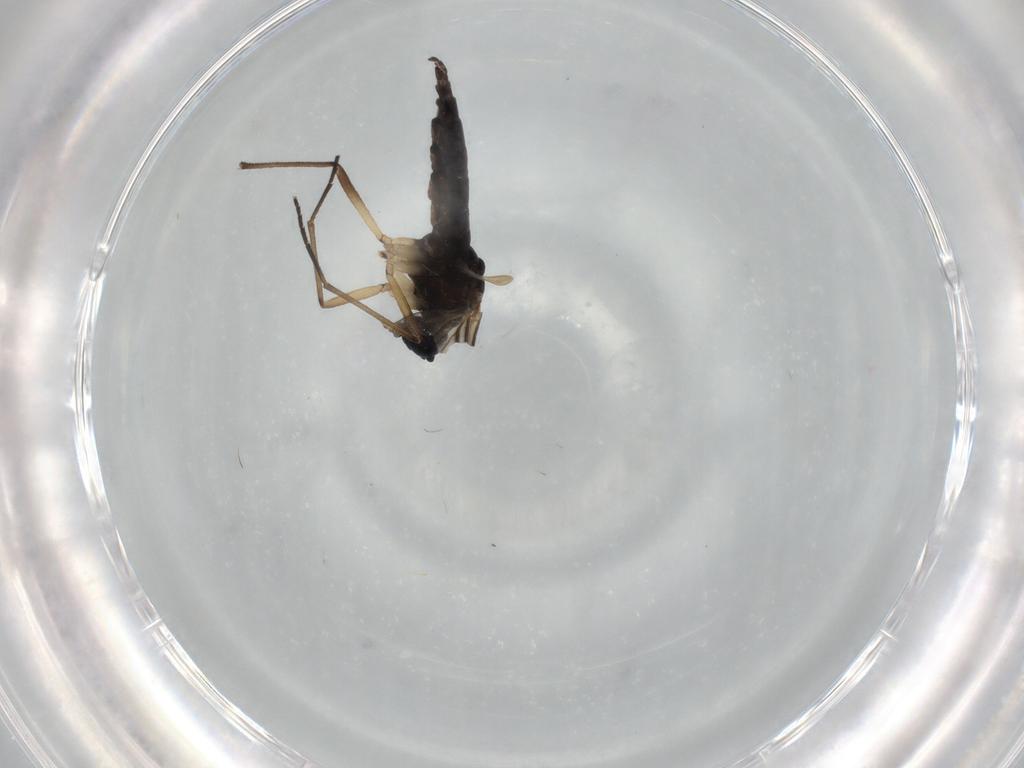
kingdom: Animalia
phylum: Arthropoda
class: Insecta
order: Diptera
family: Sciaridae
